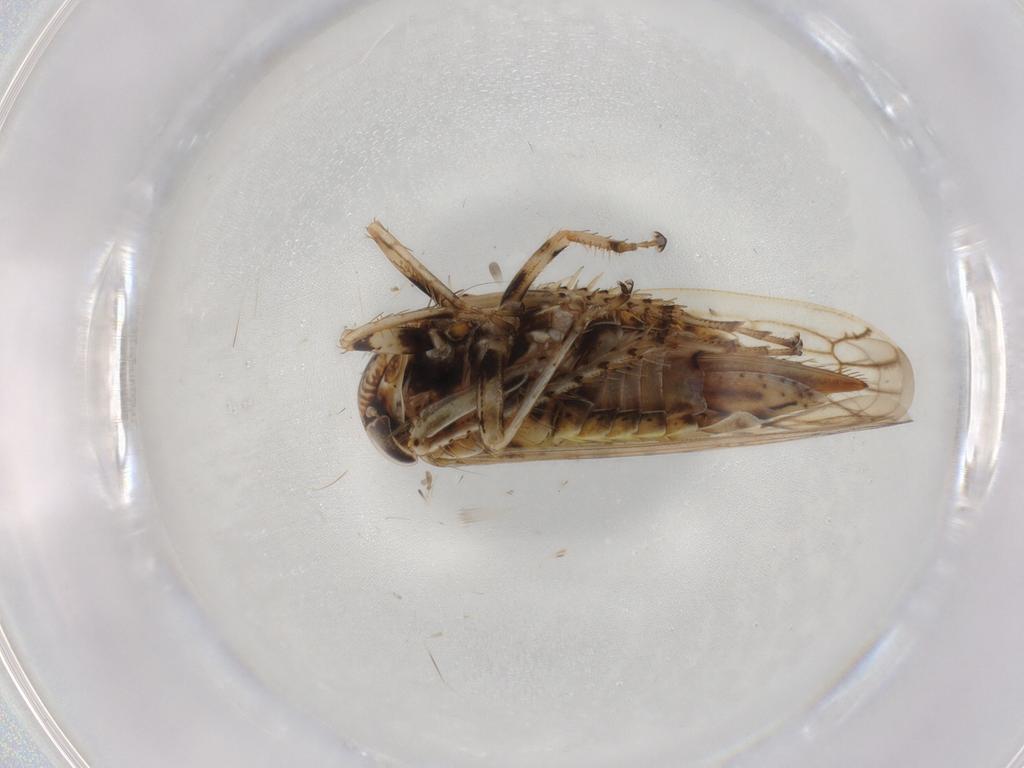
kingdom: Animalia
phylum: Arthropoda
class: Insecta
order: Hemiptera
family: Cicadellidae
